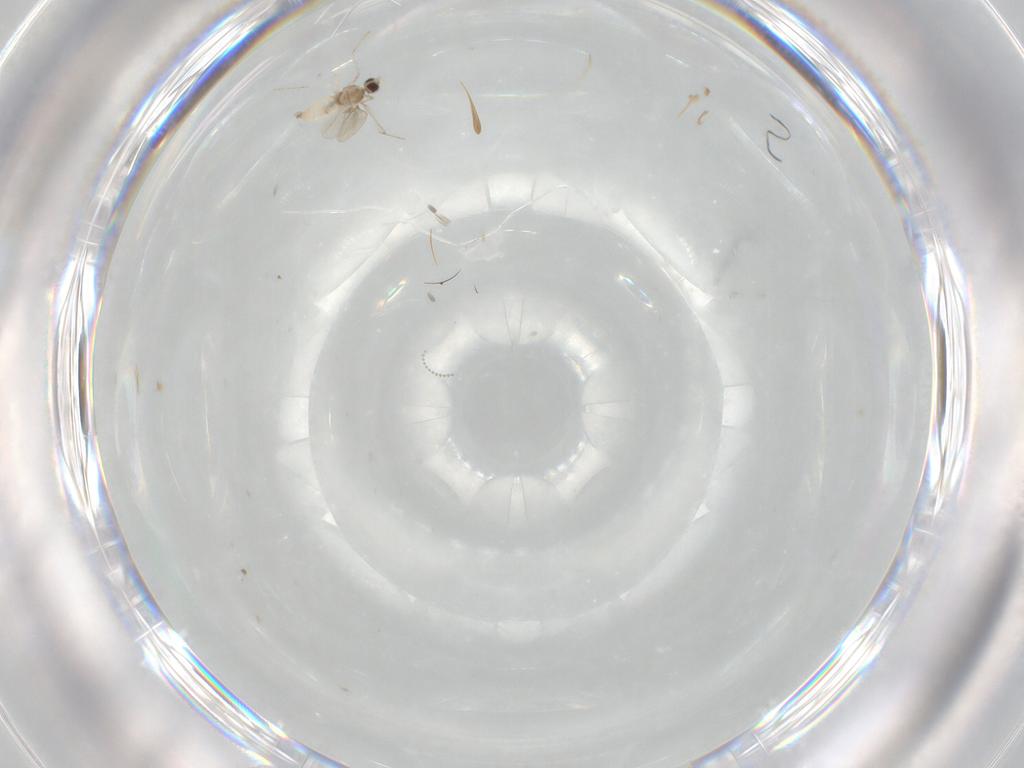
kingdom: Animalia
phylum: Arthropoda
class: Insecta
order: Diptera
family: Cecidomyiidae
